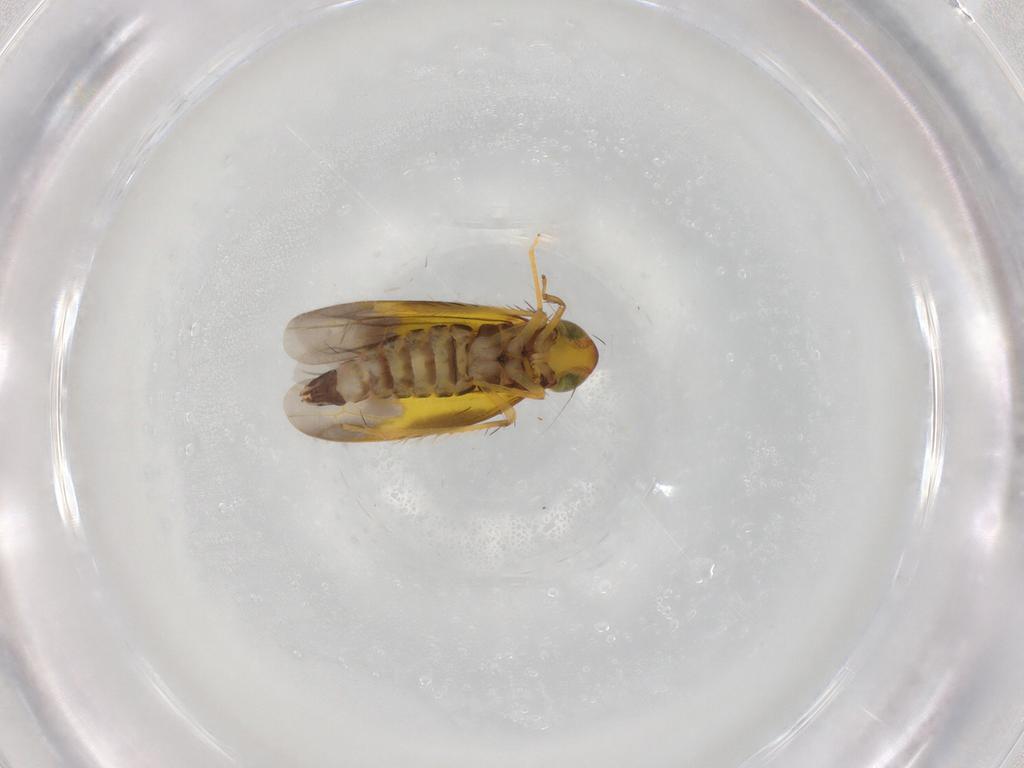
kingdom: Animalia
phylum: Arthropoda
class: Insecta
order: Hemiptera
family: Cicadellidae
